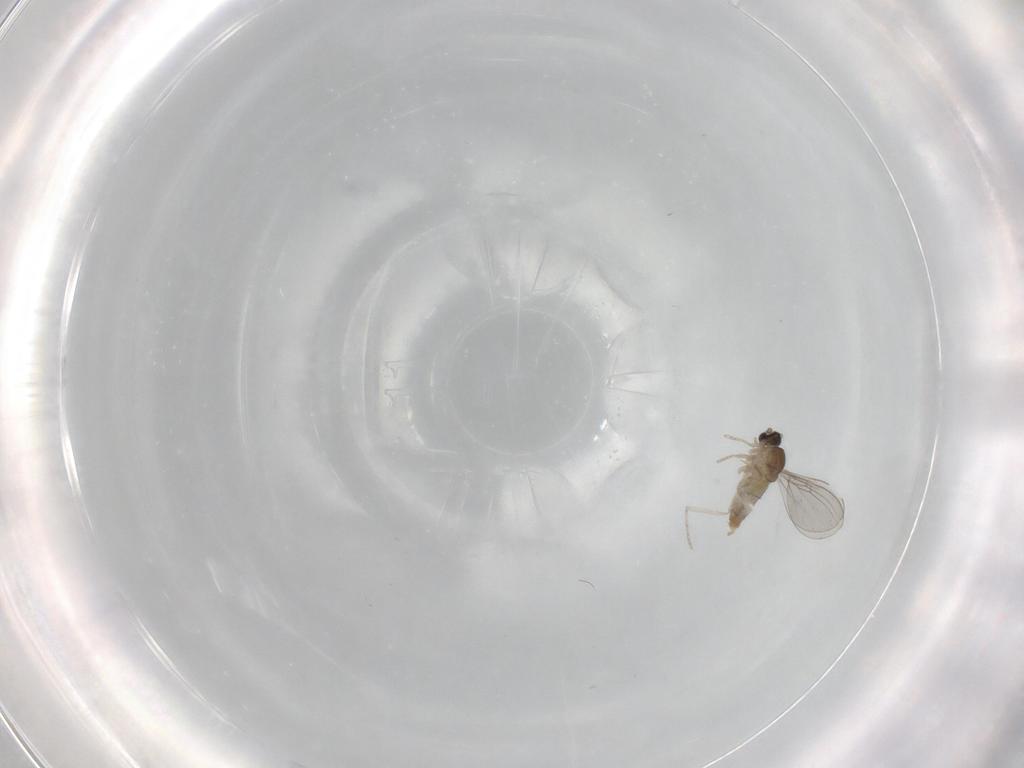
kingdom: Animalia
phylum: Arthropoda
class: Insecta
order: Diptera
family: Cecidomyiidae
